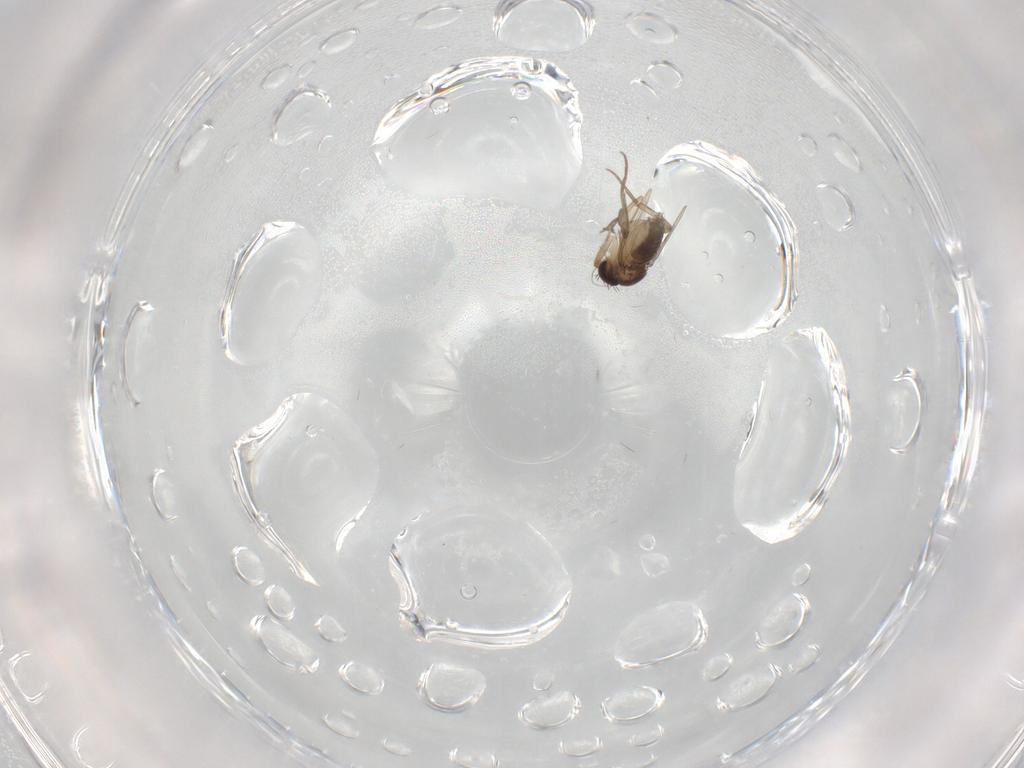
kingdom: Animalia
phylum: Arthropoda
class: Insecta
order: Diptera
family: Phoridae
